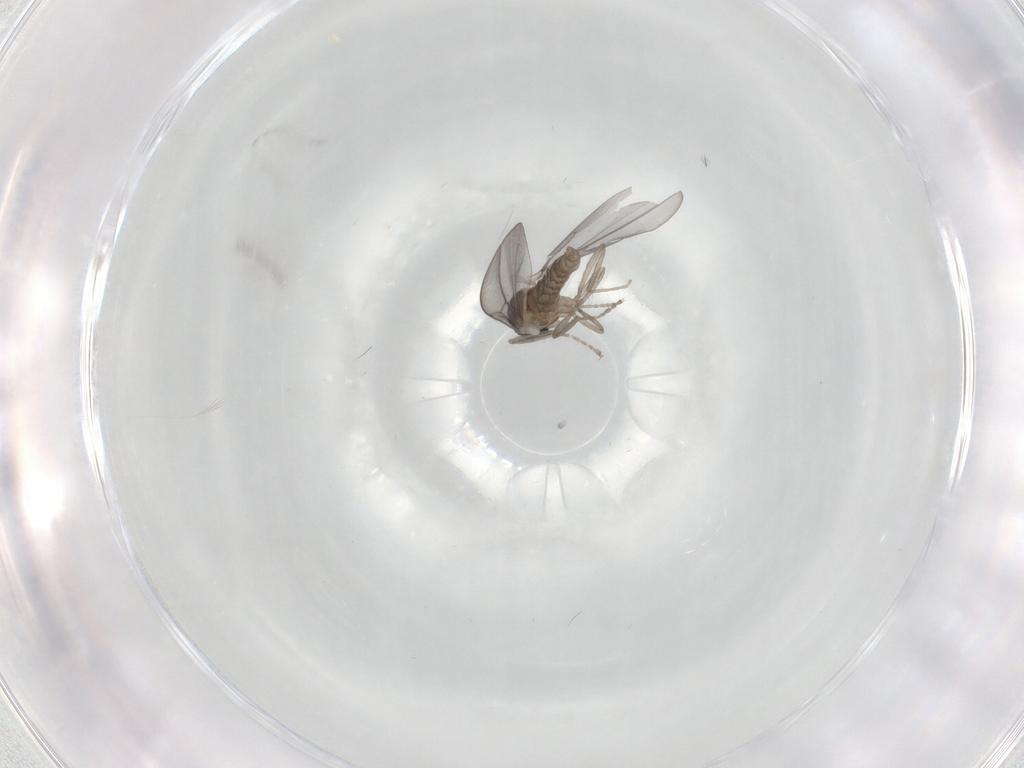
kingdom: Animalia
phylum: Arthropoda
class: Insecta
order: Diptera
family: Cecidomyiidae
